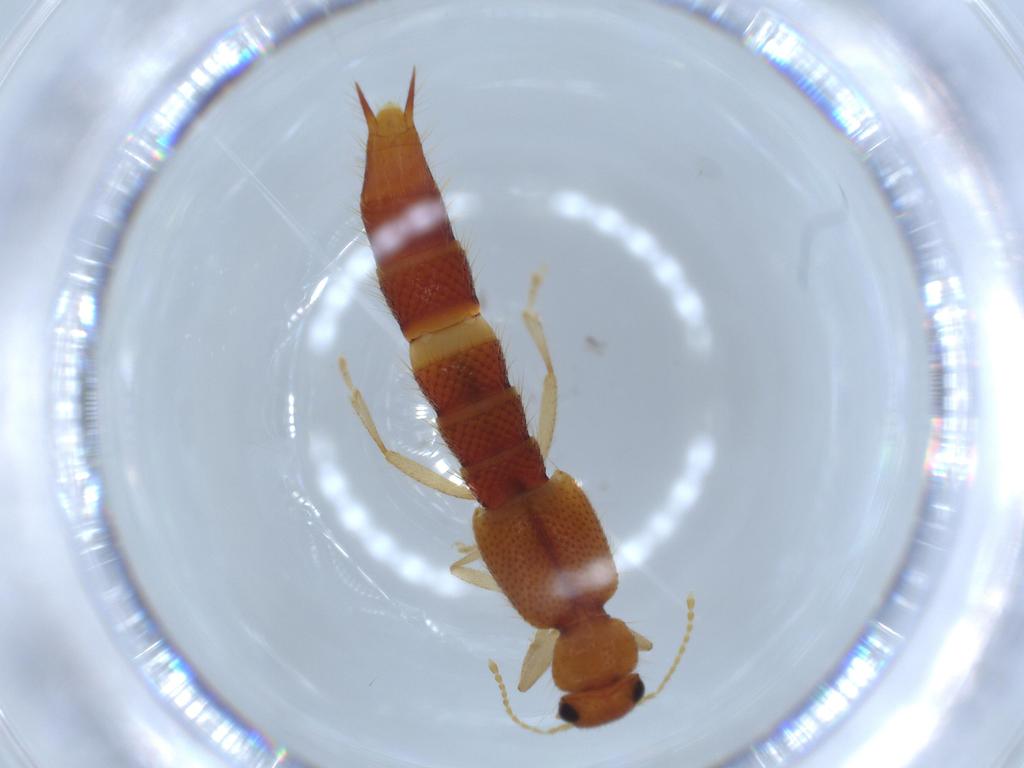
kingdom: Animalia
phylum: Arthropoda
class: Insecta
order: Coleoptera
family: Staphylinidae
